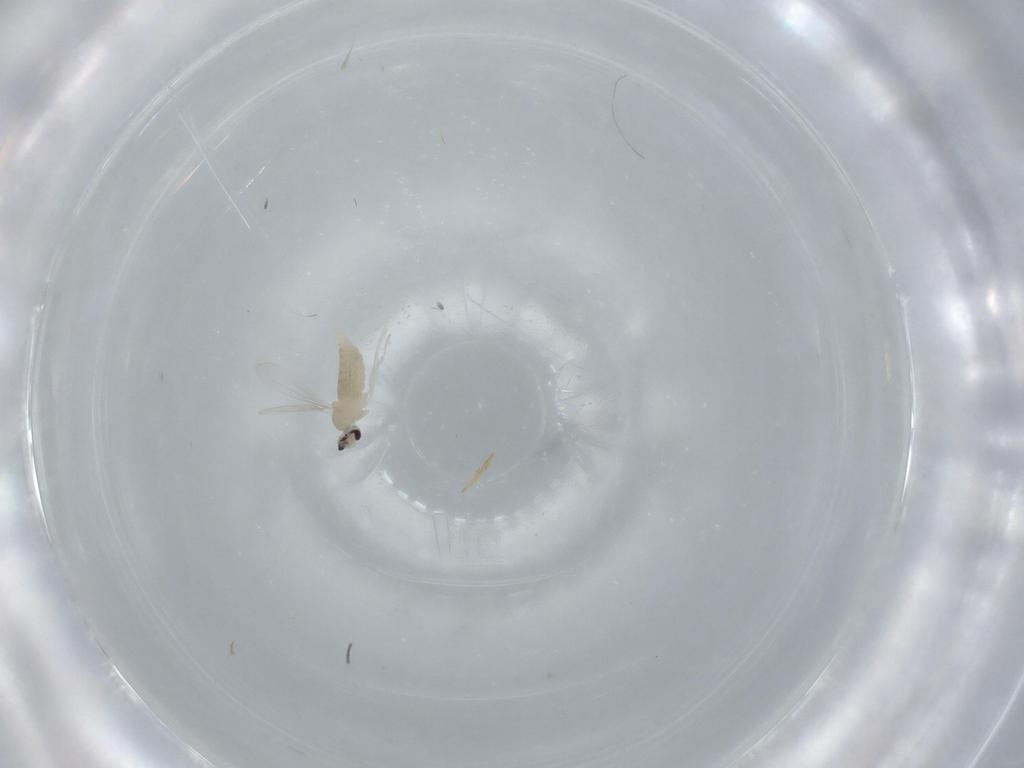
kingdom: Animalia
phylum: Arthropoda
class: Insecta
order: Diptera
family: Cecidomyiidae
